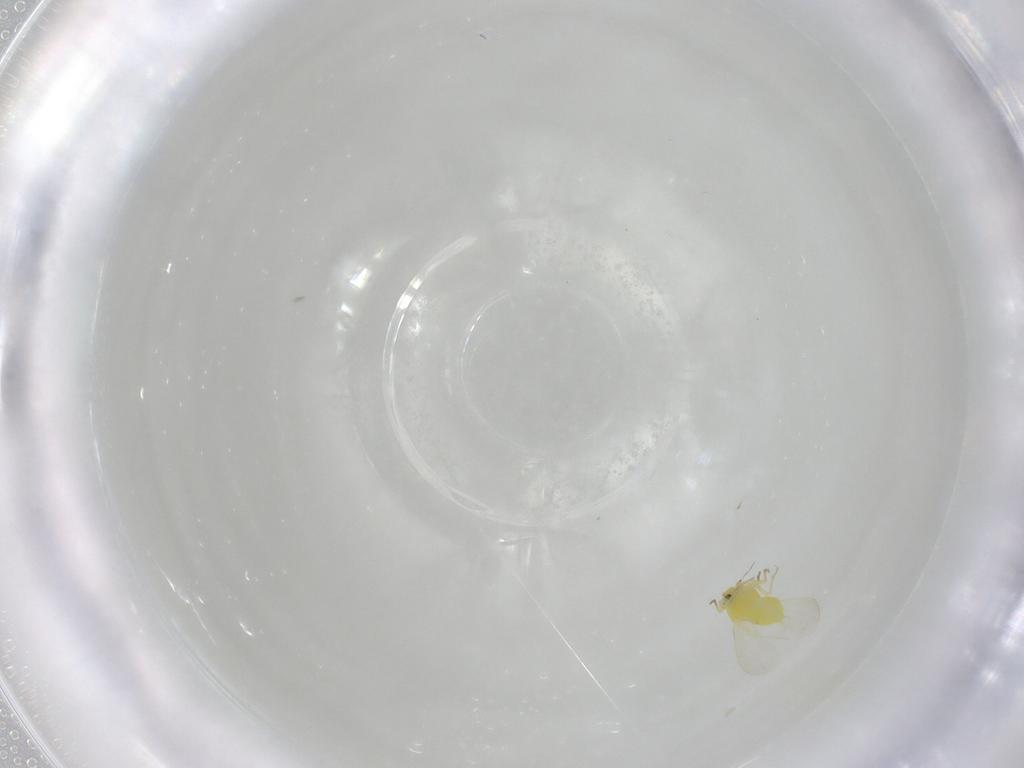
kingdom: Animalia
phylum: Arthropoda
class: Insecta
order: Hemiptera
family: Aleyrodidae
